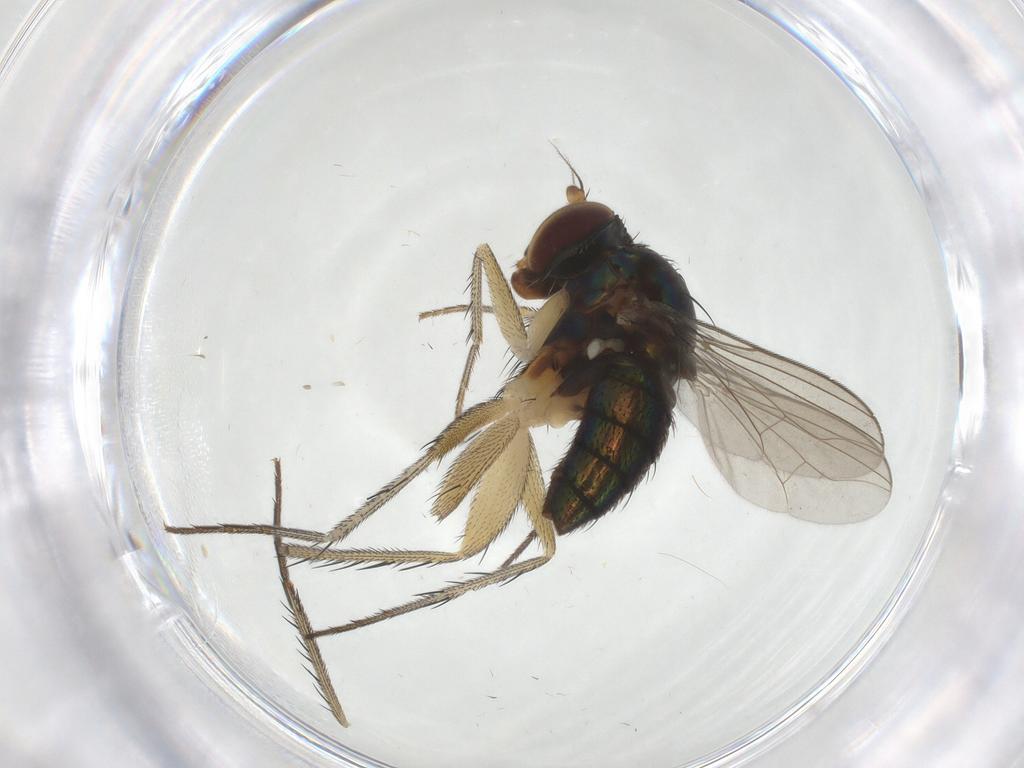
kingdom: Animalia
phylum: Arthropoda
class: Insecta
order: Diptera
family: Dolichopodidae
